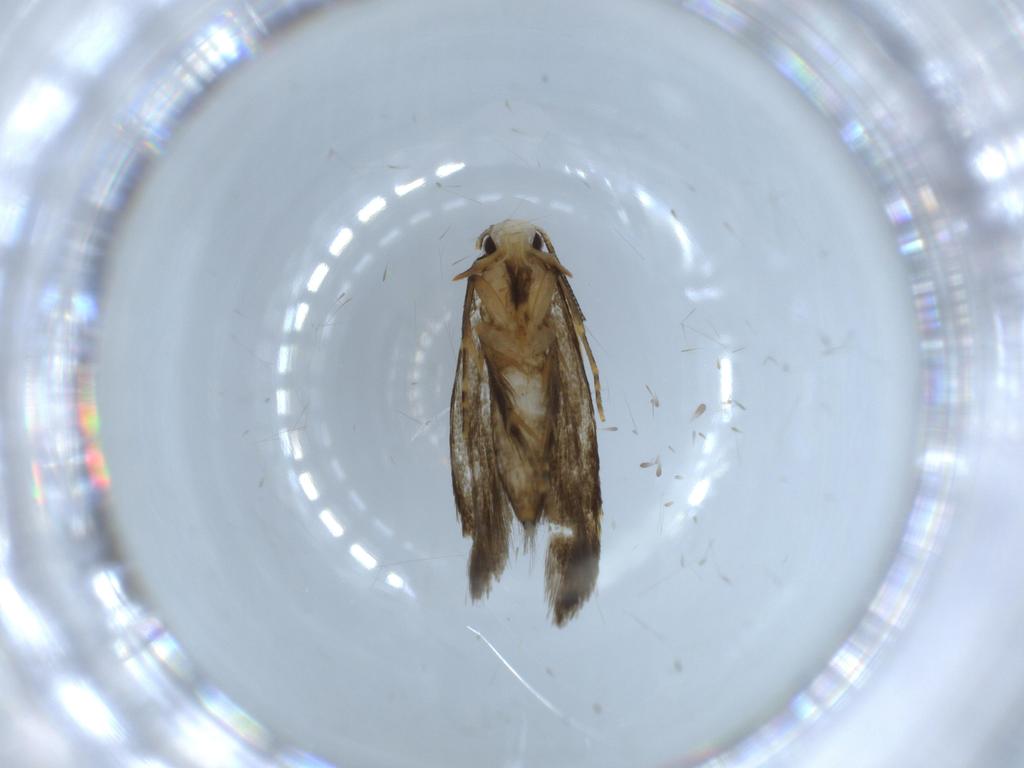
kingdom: Animalia
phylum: Arthropoda
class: Insecta
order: Lepidoptera
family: Tineidae
